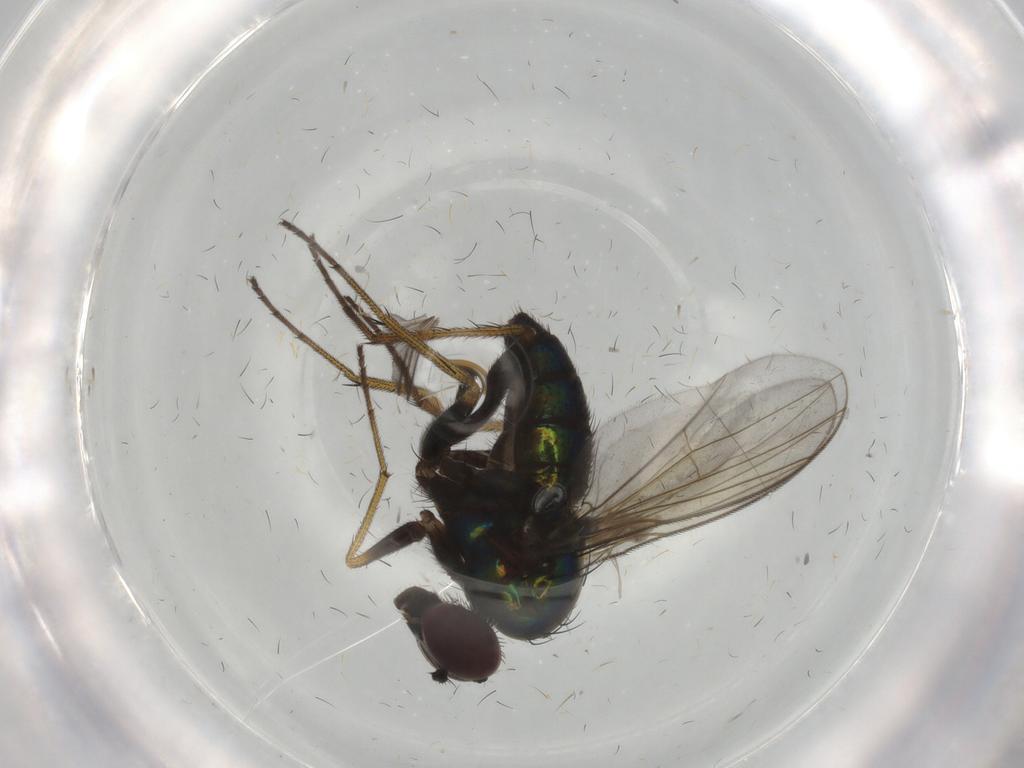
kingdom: Animalia
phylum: Arthropoda
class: Insecta
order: Diptera
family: Dolichopodidae
